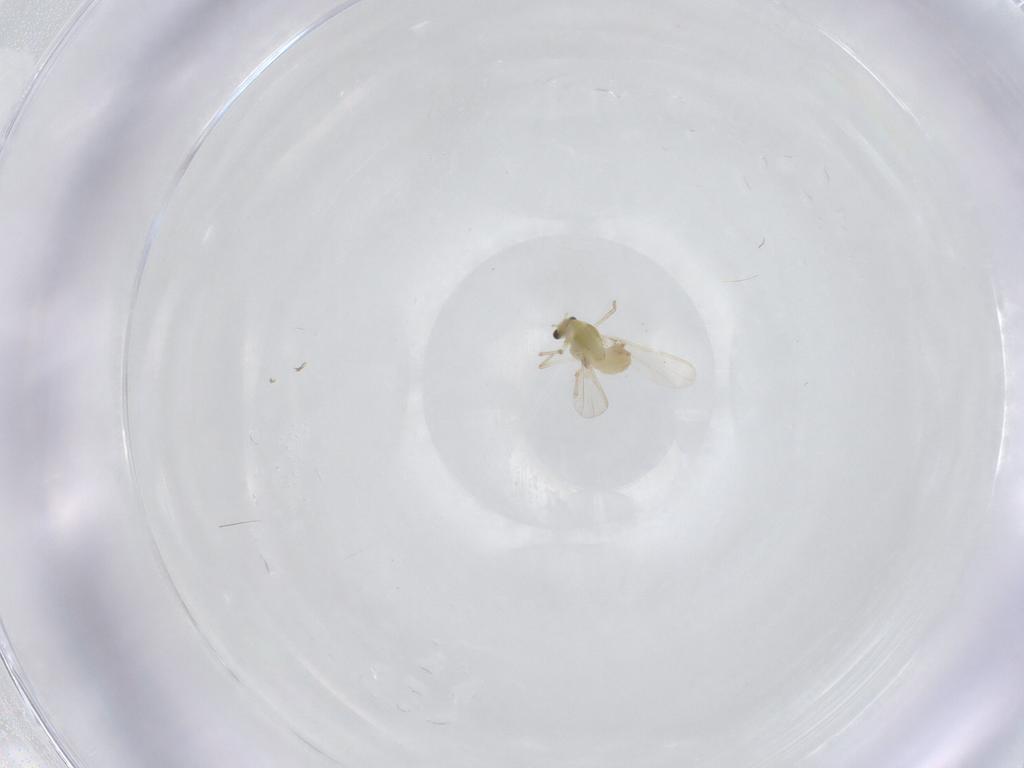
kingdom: Animalia
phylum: Arthropoda
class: Insecta
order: Diptera
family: Chironomidae
